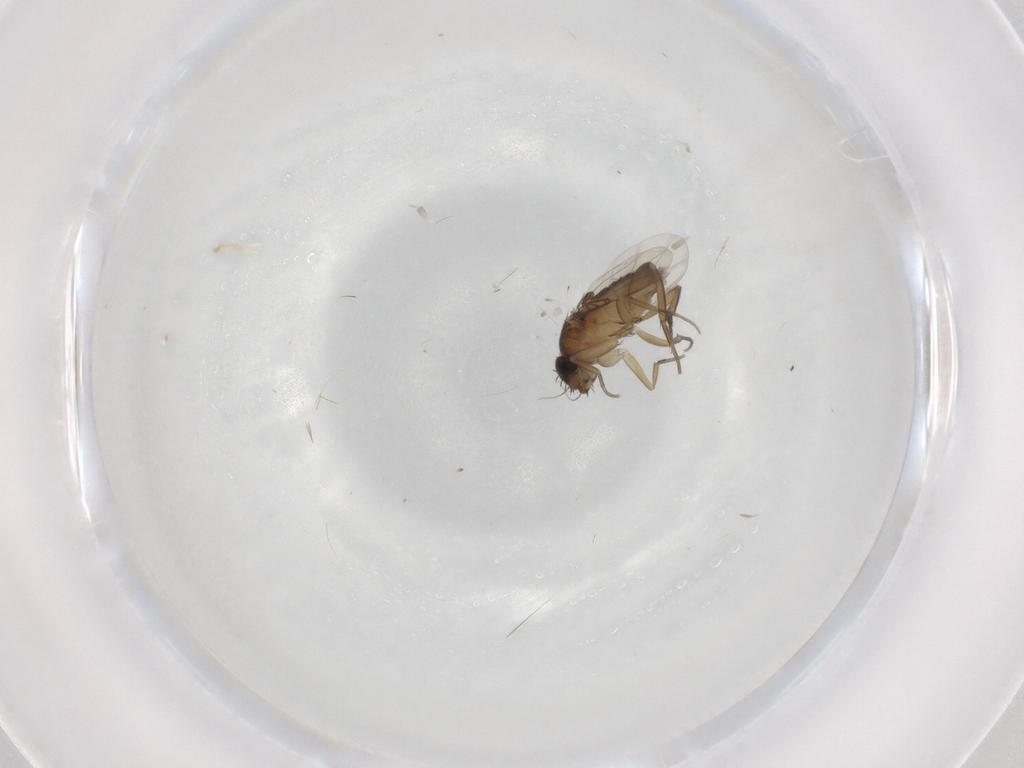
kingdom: Animalia
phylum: Arthropoda
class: Insecta
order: Diptera
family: Phoridae
